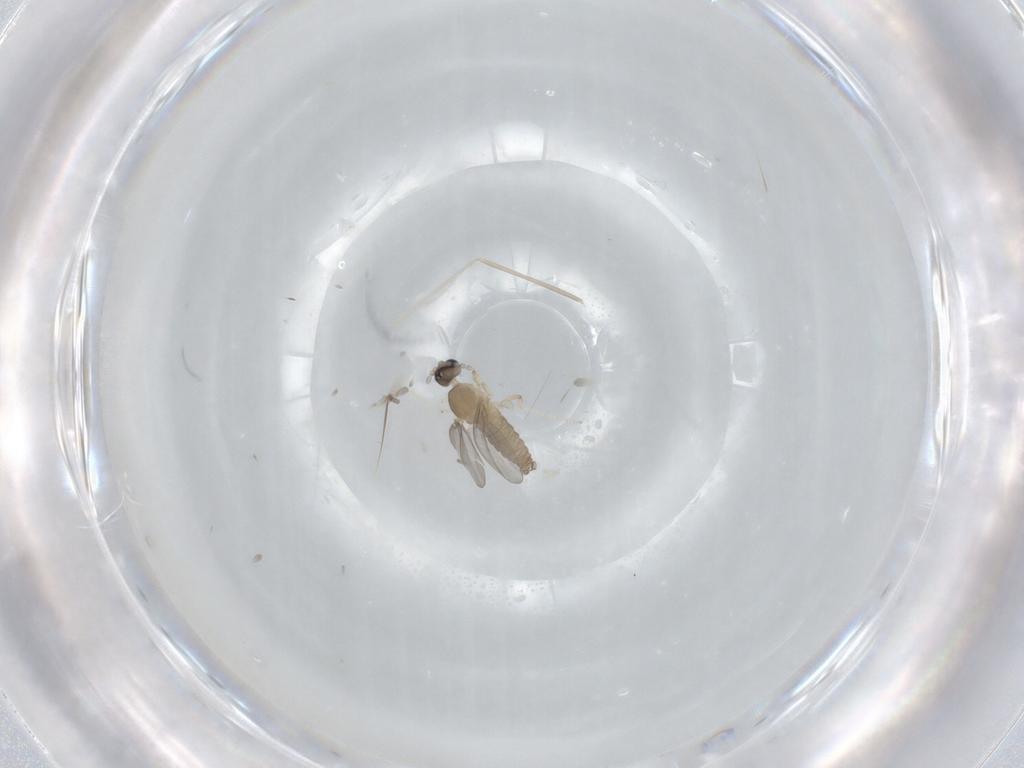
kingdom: Animalia
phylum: Arthropoda
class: Insecta
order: Diptera
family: Cecidomyiidae
